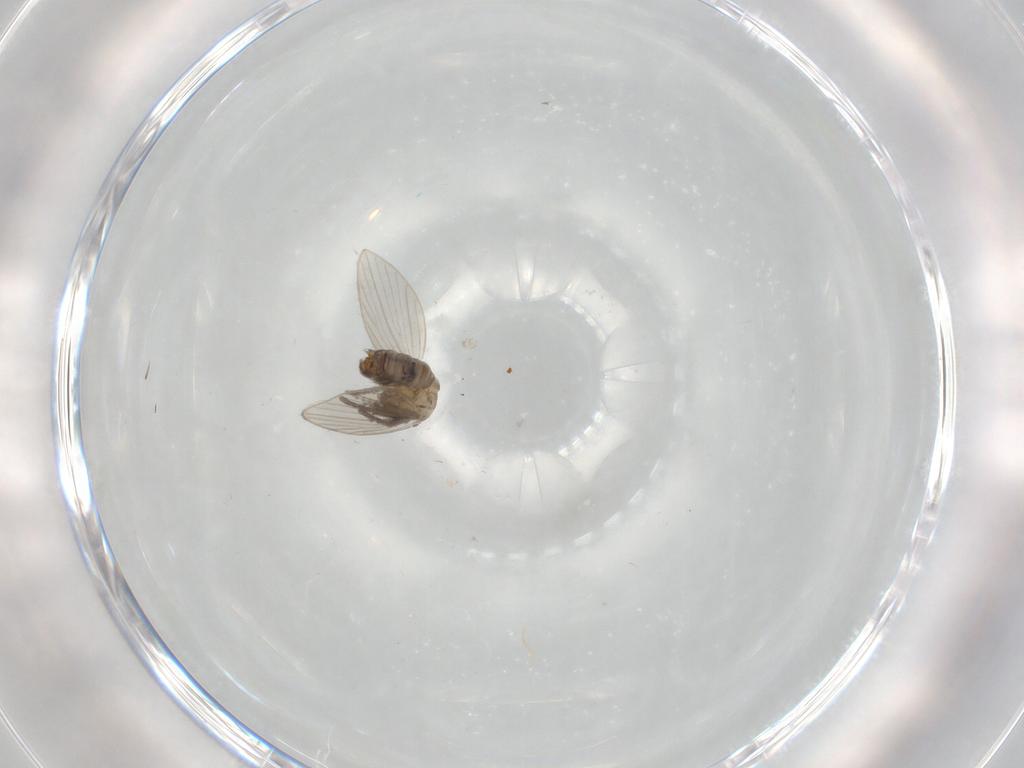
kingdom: Animalia
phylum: Arthropoda
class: Insecta
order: Diptera
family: Psychodidae
